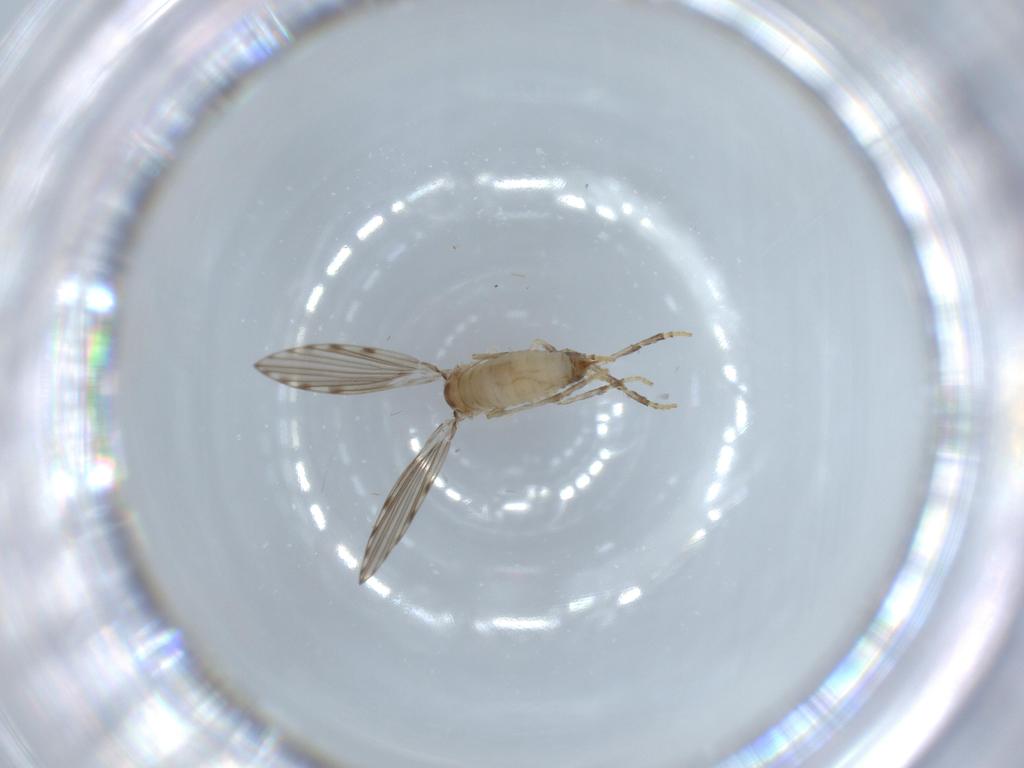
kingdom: Animalia
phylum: Arthropoda
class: Insecta
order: Diptera
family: Psychodidae
